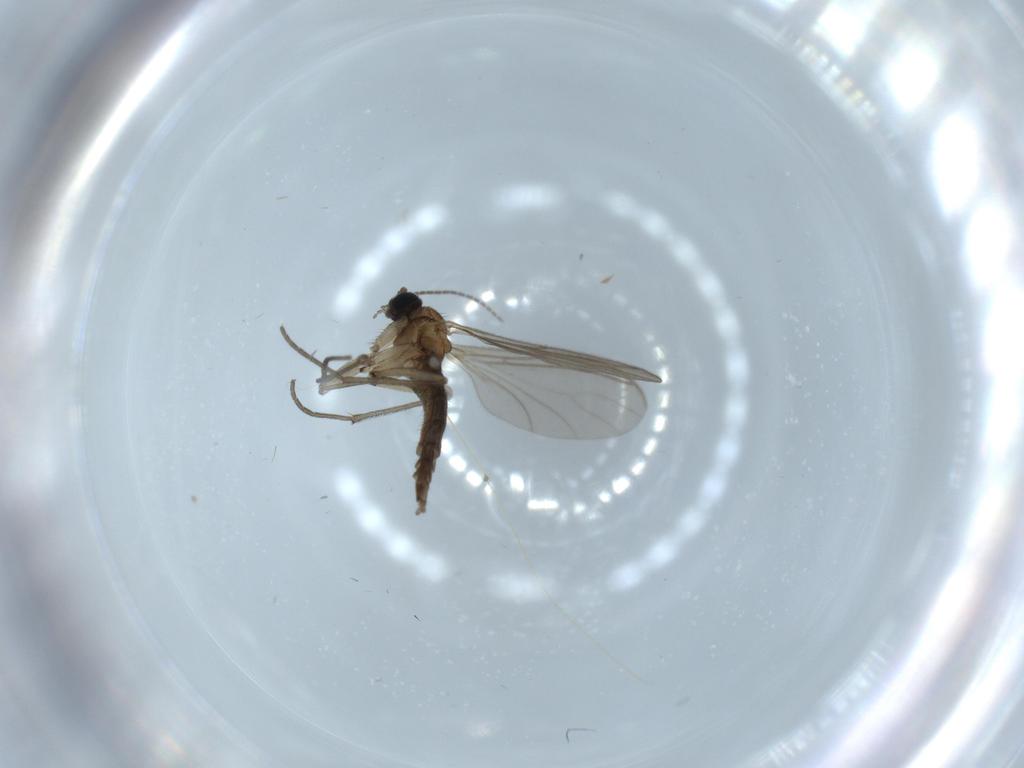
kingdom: Animalia
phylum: Arthropoda
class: Insecta
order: Diptera
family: Sciaridae
